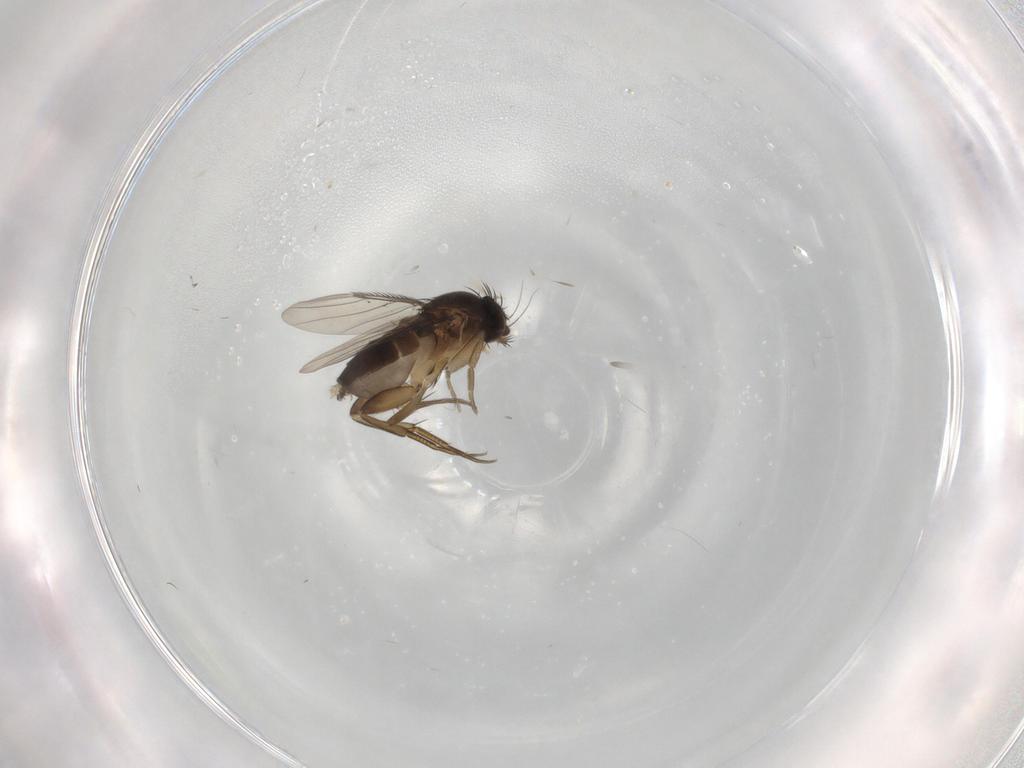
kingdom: Animalia
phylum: Arthropoda
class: Insecta
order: Diptera
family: Phoridae
